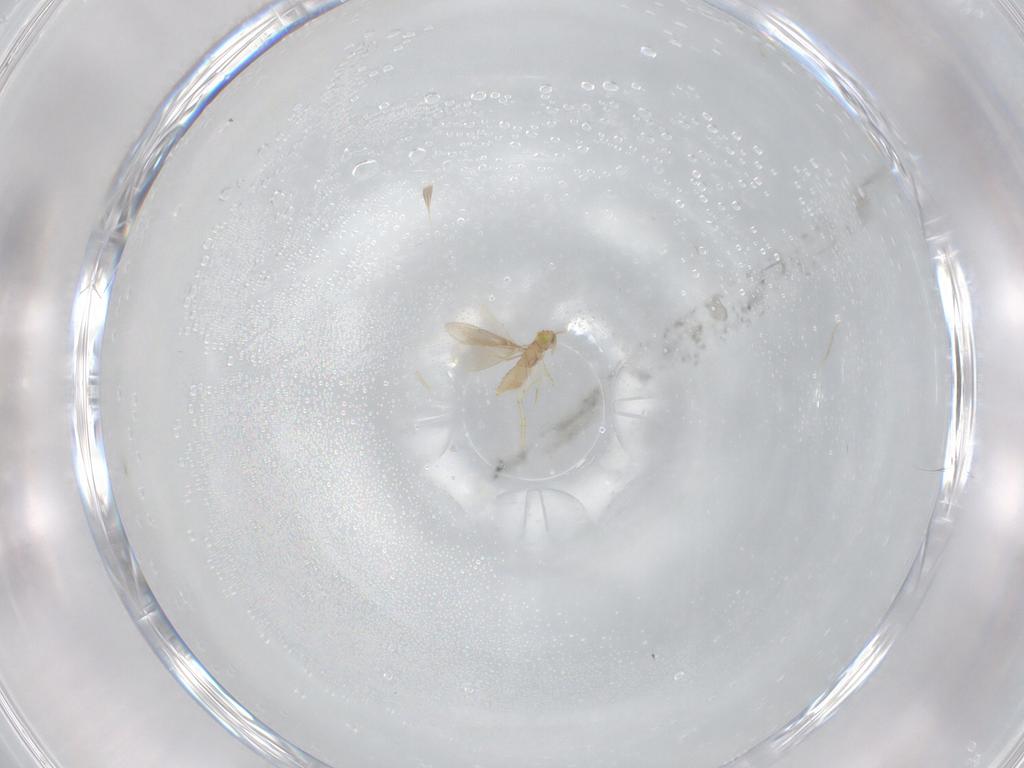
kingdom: Animalia
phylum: Arthropoda
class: Insecta
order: Hymenoptera
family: Aphelinidae
